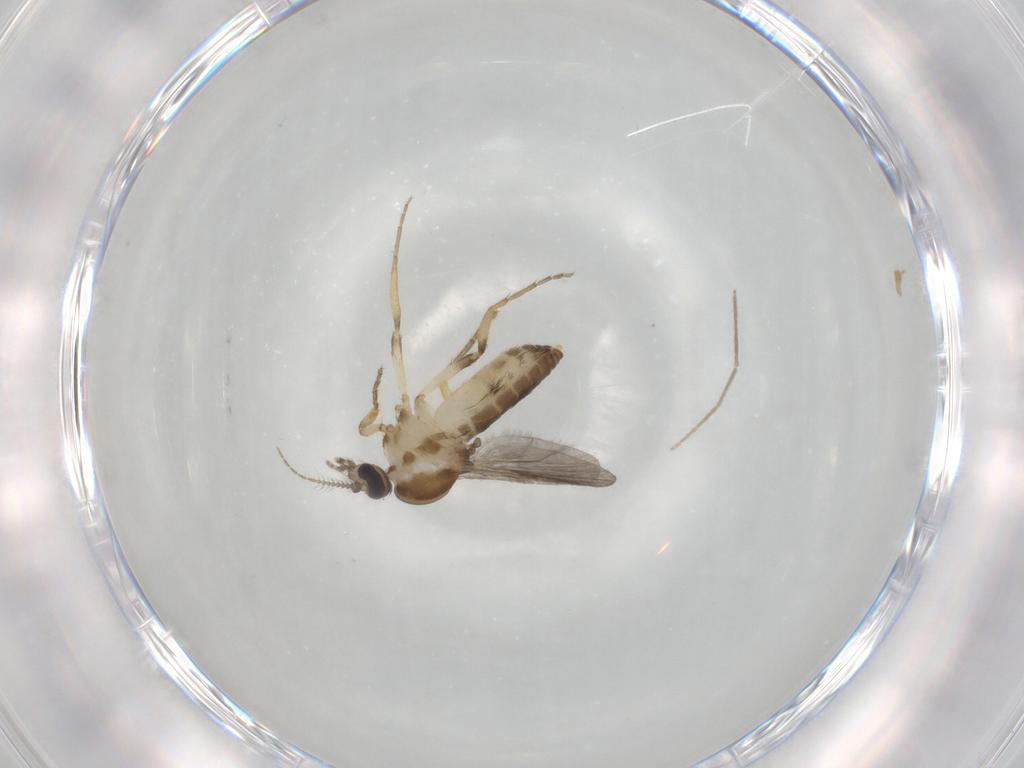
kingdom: Animalia
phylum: Arthropoda
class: Insecta
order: Diptera
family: Ceratopogonidae
